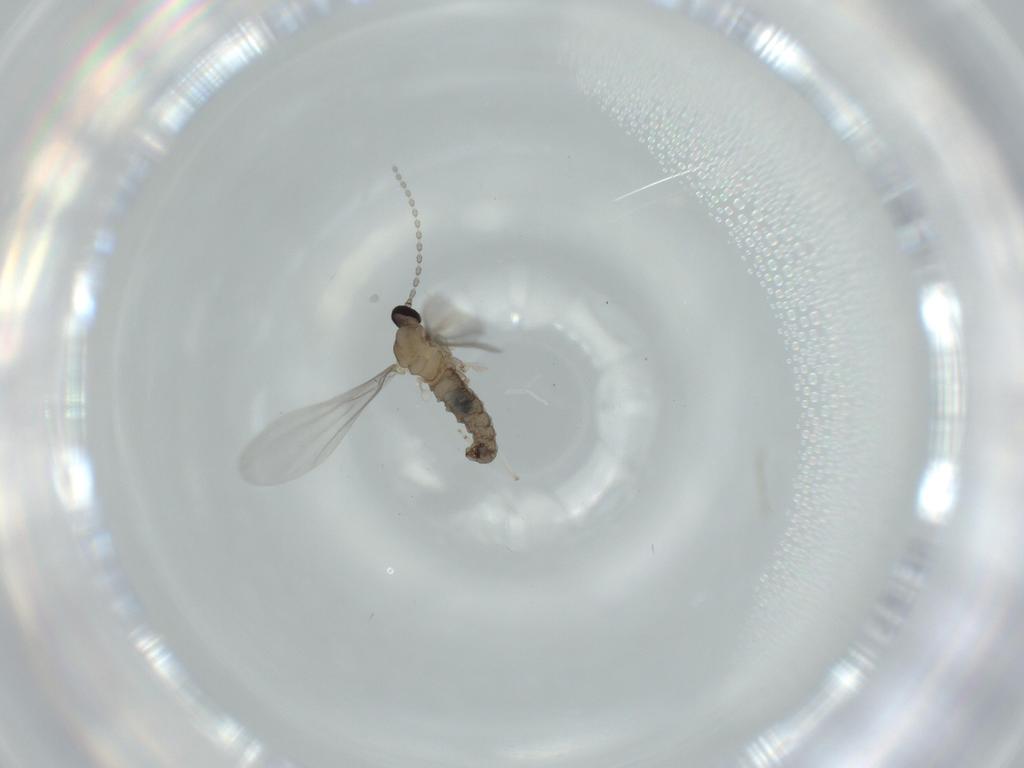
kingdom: Animalia
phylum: Arthropoda
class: Insecta
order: Diptera
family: Cecidomyiidae
